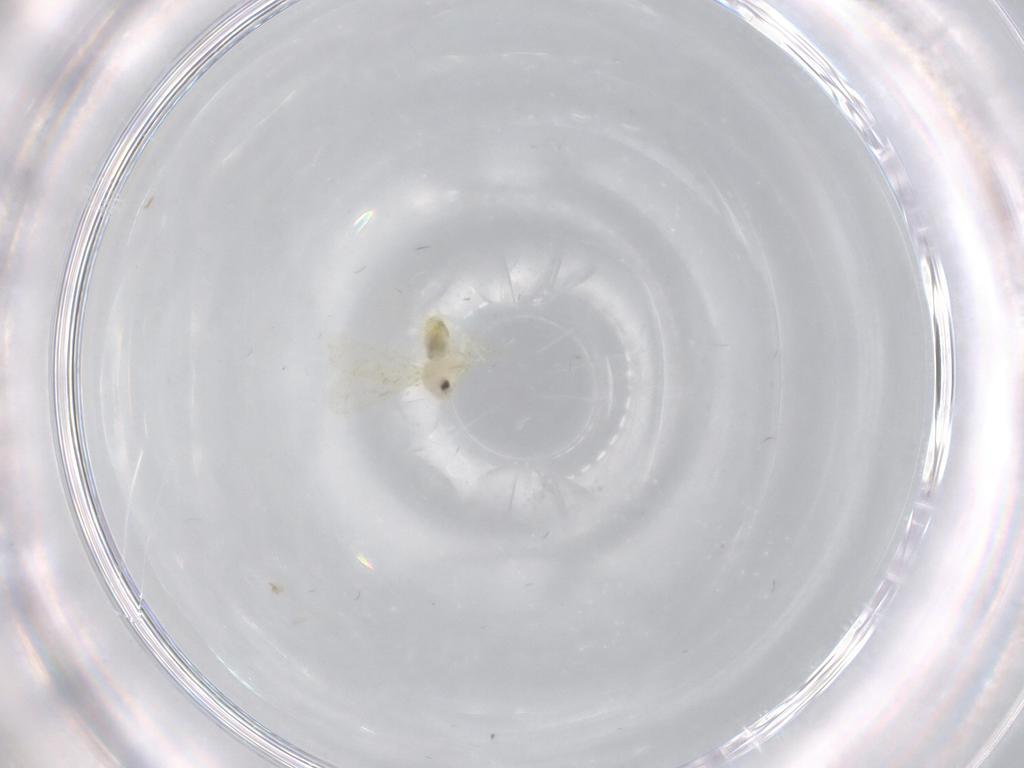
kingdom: Animalia
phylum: Arthropoda
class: Insecta
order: Hemiptera
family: Aleyrodidae
